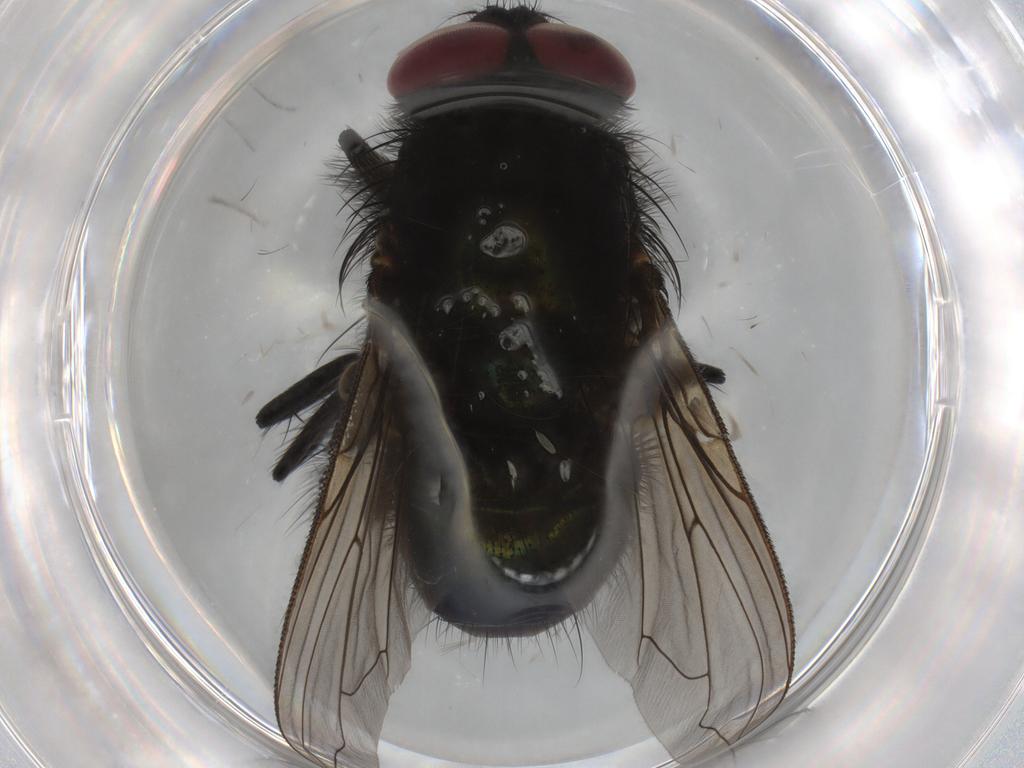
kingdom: Animalia
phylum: Arthropoda
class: Insecta
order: Diptera
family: Calliphoridae
